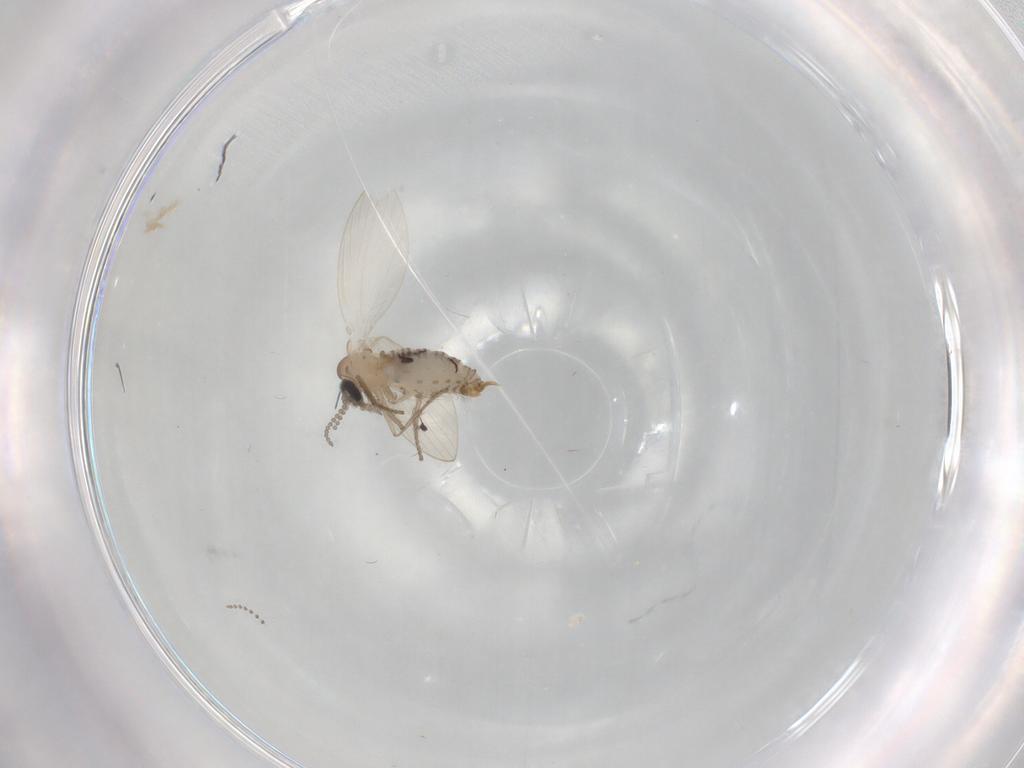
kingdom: Animalia
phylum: Arthropoda
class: Insecta
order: Diptera
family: Psychodidae
